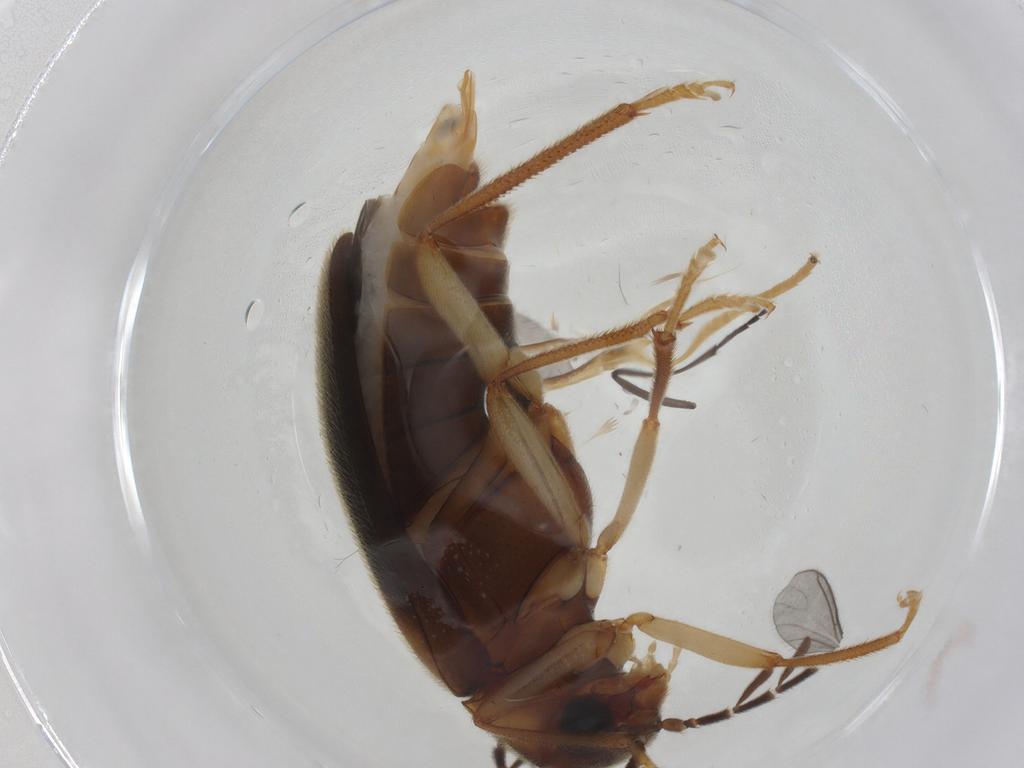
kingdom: Animalia
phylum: Arthropoda
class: Insecta
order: Coleoptera
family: Ptilodactylidae
